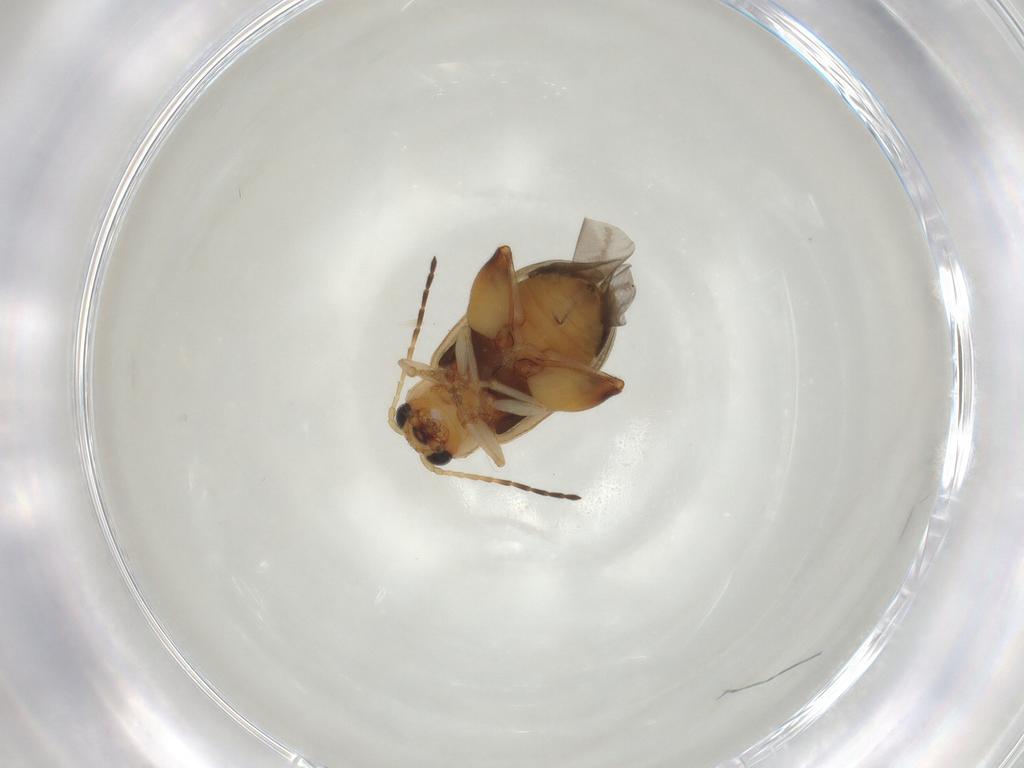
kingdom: Animalia
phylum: Arthropoda
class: Insecta
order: Coleoptera
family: Chrysomelidae
